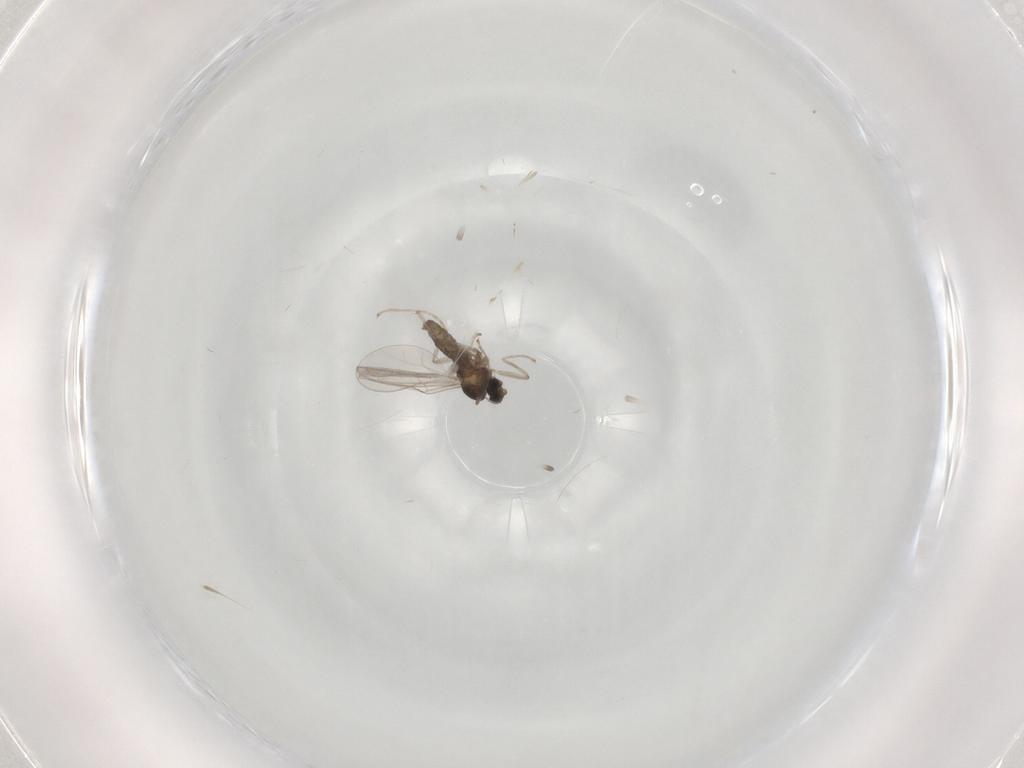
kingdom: Animalia
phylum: Arthropoda
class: Insecta
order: Diptera
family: Cecidomyiidae
